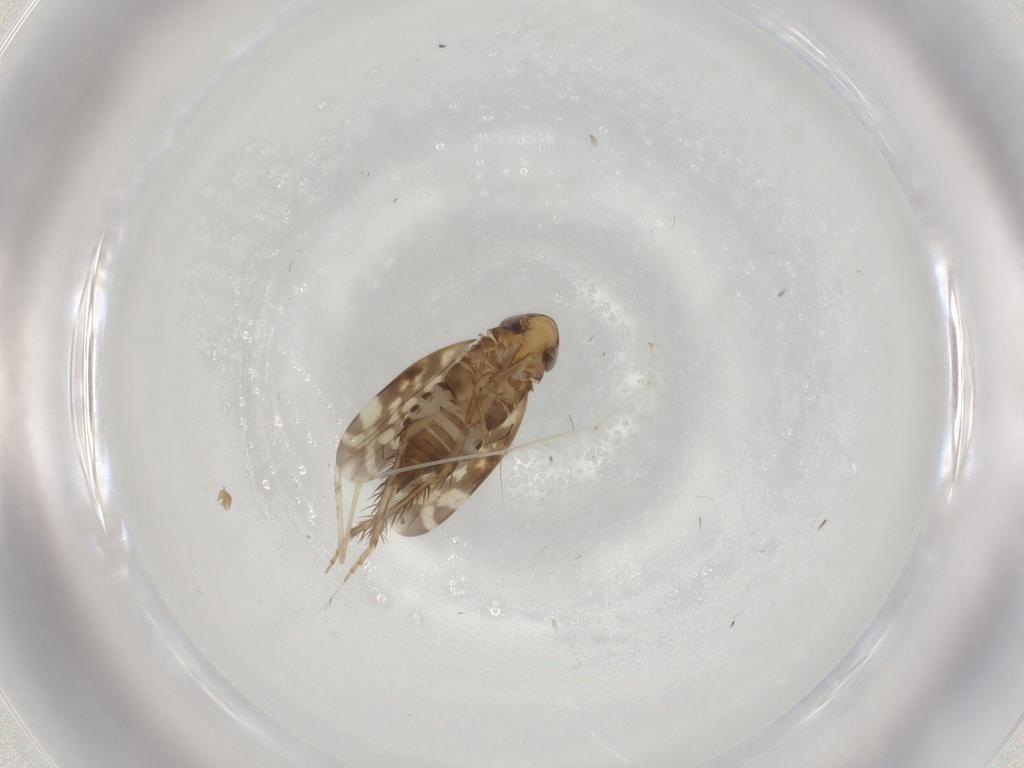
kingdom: Animalia
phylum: Arthropoda
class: Insecta
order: Hemiptera
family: Cicadellidae
